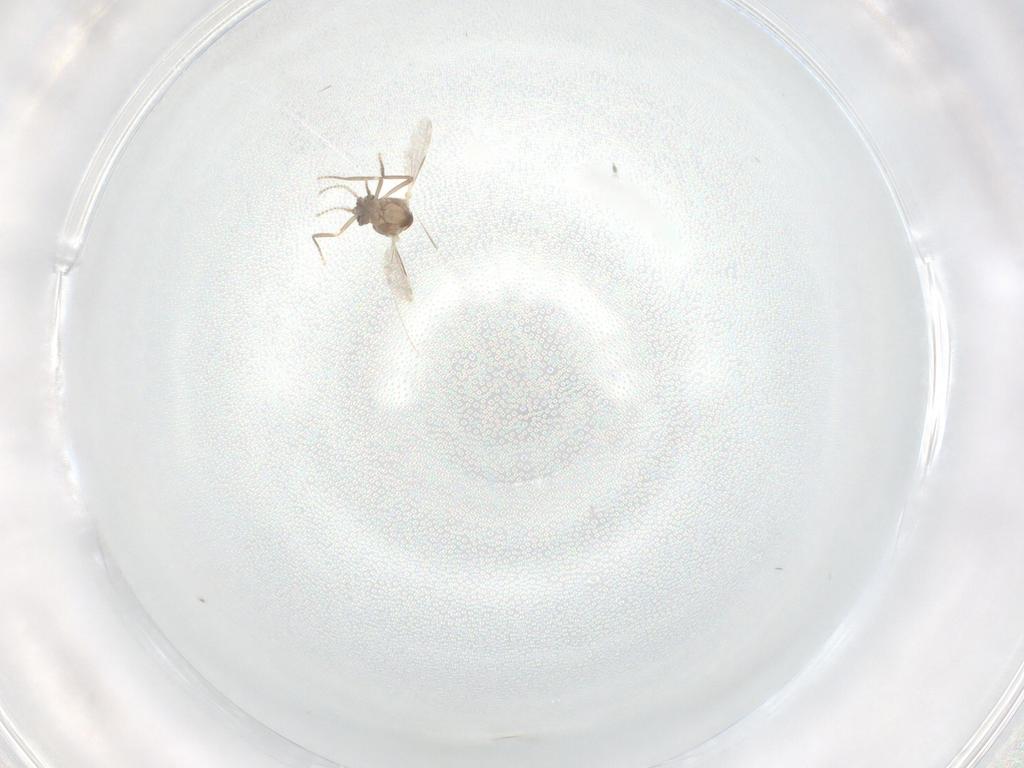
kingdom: Animalia
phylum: Arthropoda
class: Insecta
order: Diptera
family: Ceratopogonidae
